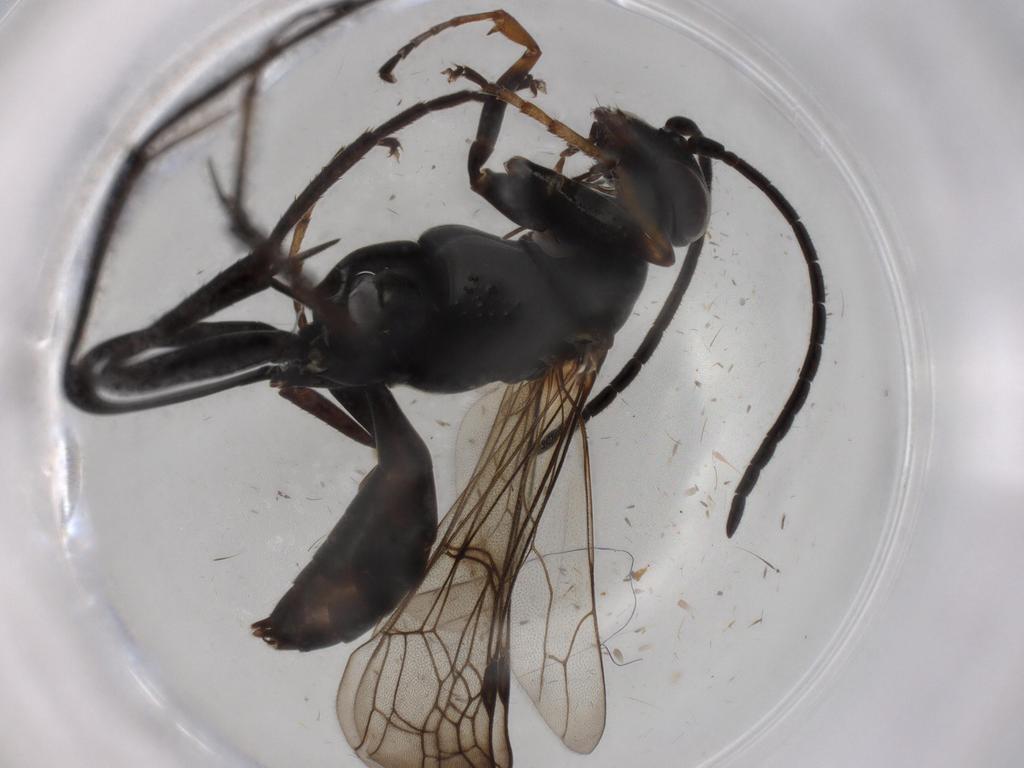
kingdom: Animalia
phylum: Arthropoda
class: Insecta
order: Hymenoptera
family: Pompilidae
